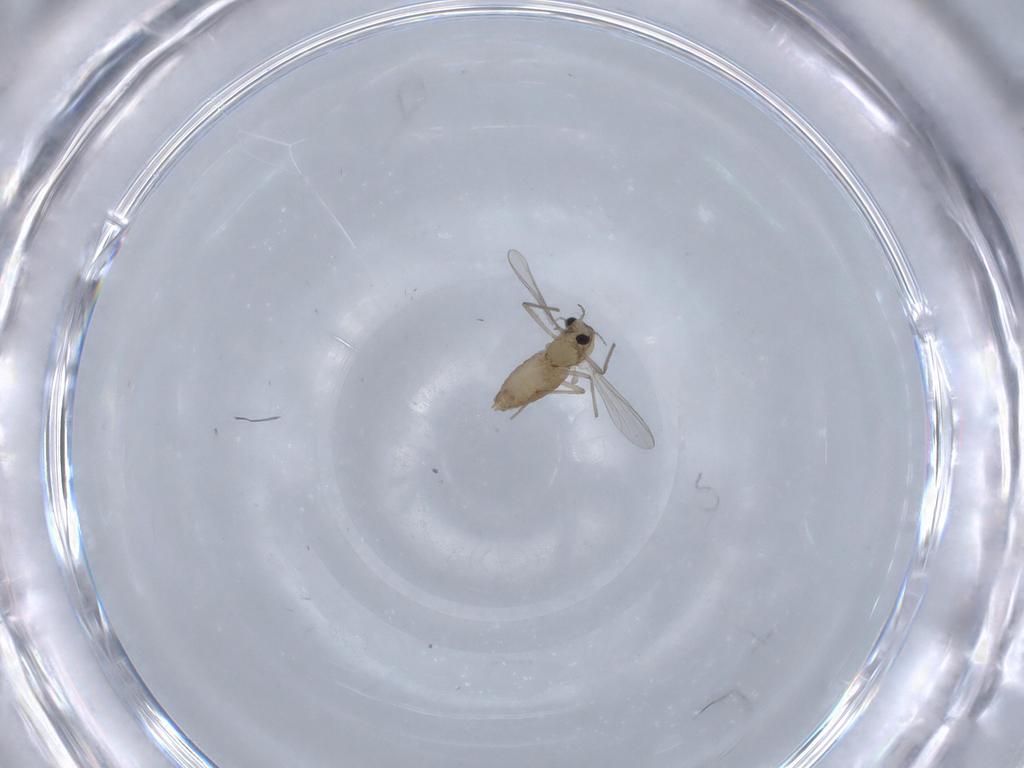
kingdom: Animalia
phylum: Arthropoda
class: Insecta
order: Diptera
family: Chironomidae
